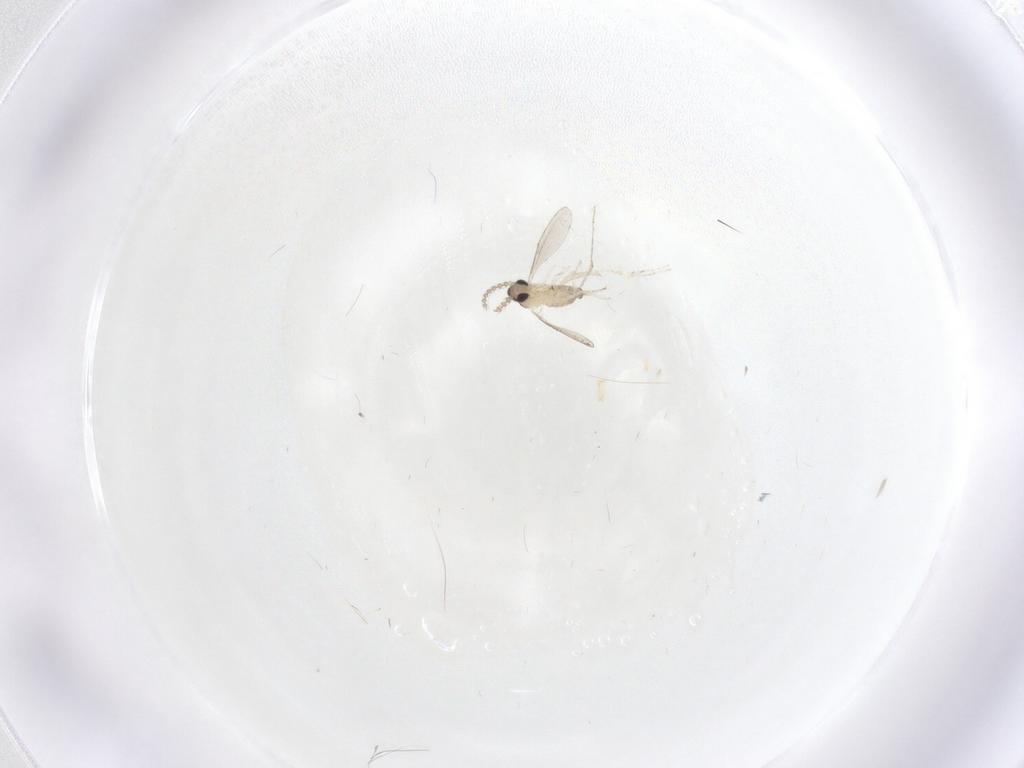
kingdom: Animalia
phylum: Arthropoda
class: Insecta
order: Diptera
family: Cecidomyiidae
